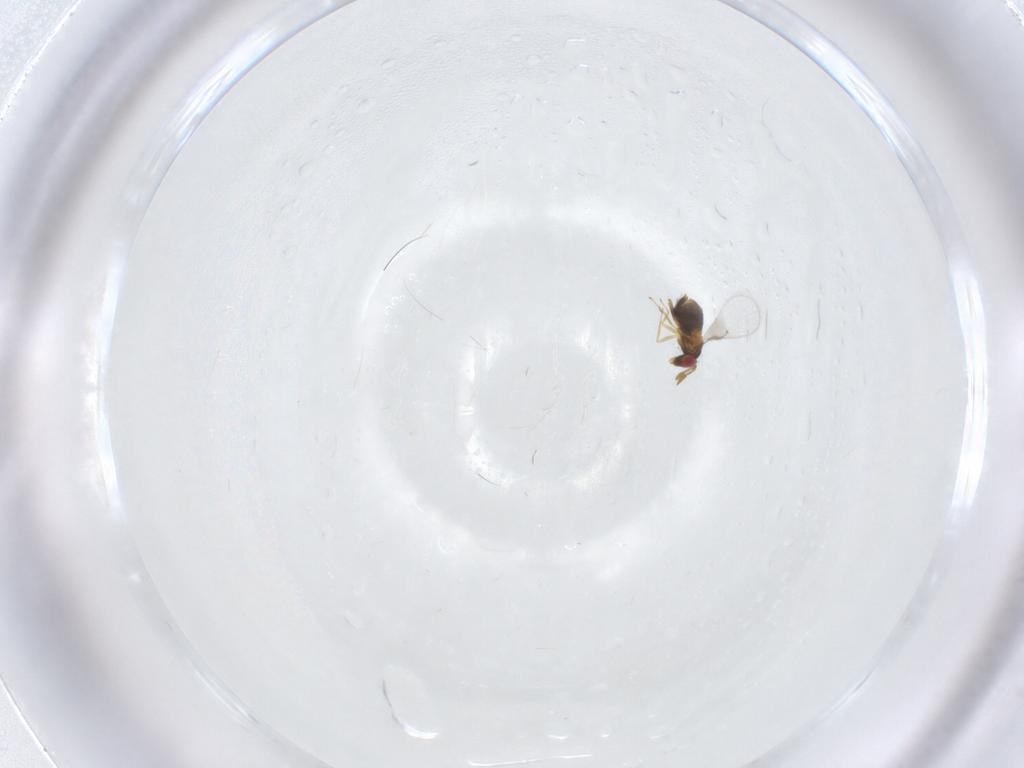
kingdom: Animalia
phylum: Arthropoda
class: Insecta
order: Hymenoptera
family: Trichogrammatidae
